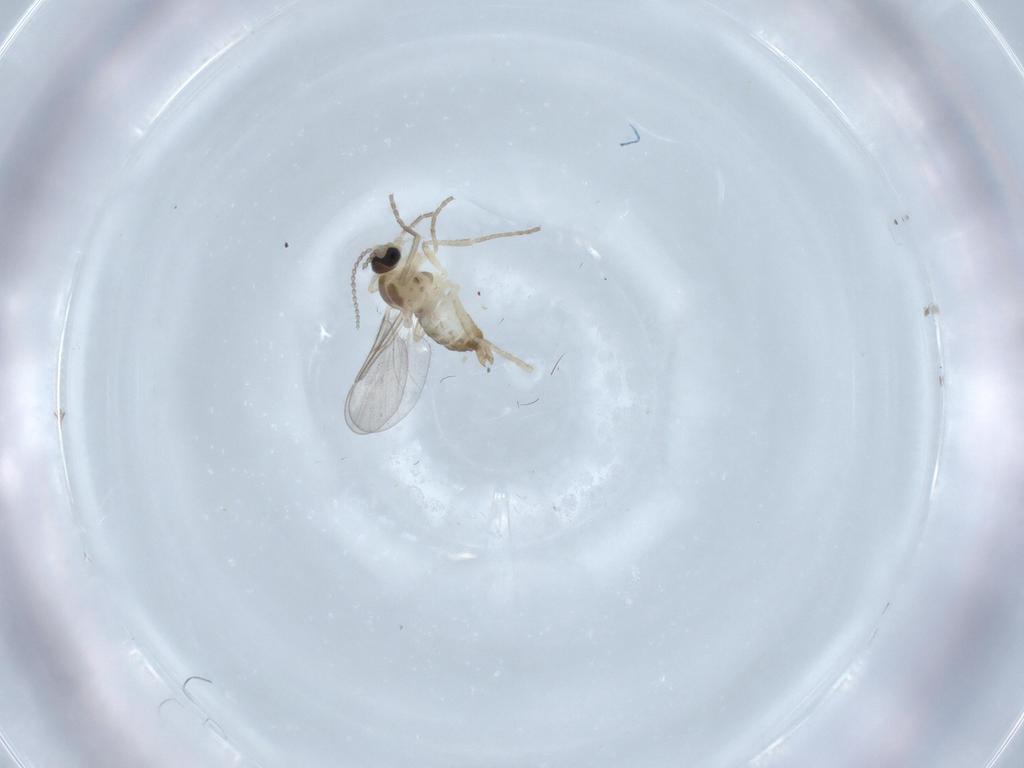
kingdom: Animalia
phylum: Arthropoda
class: Insecta
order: Diptera
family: Cecidomyiidae
